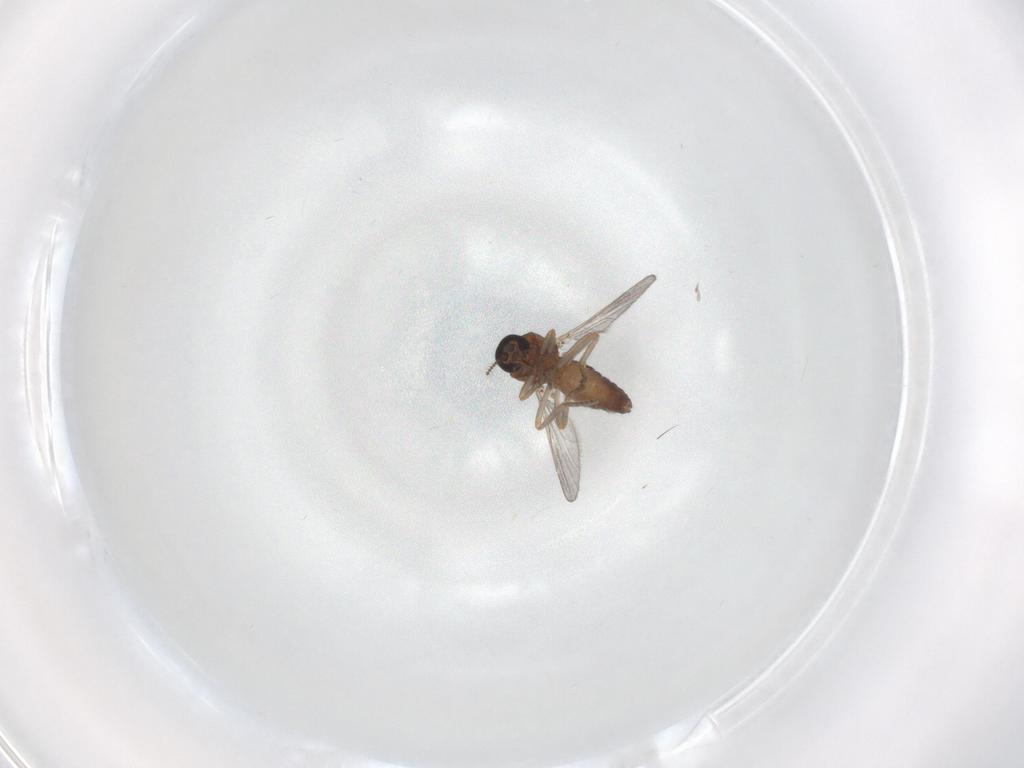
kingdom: Animalia
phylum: Arthropoda
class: Insecta
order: Diptera
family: Ceratopogonidae
